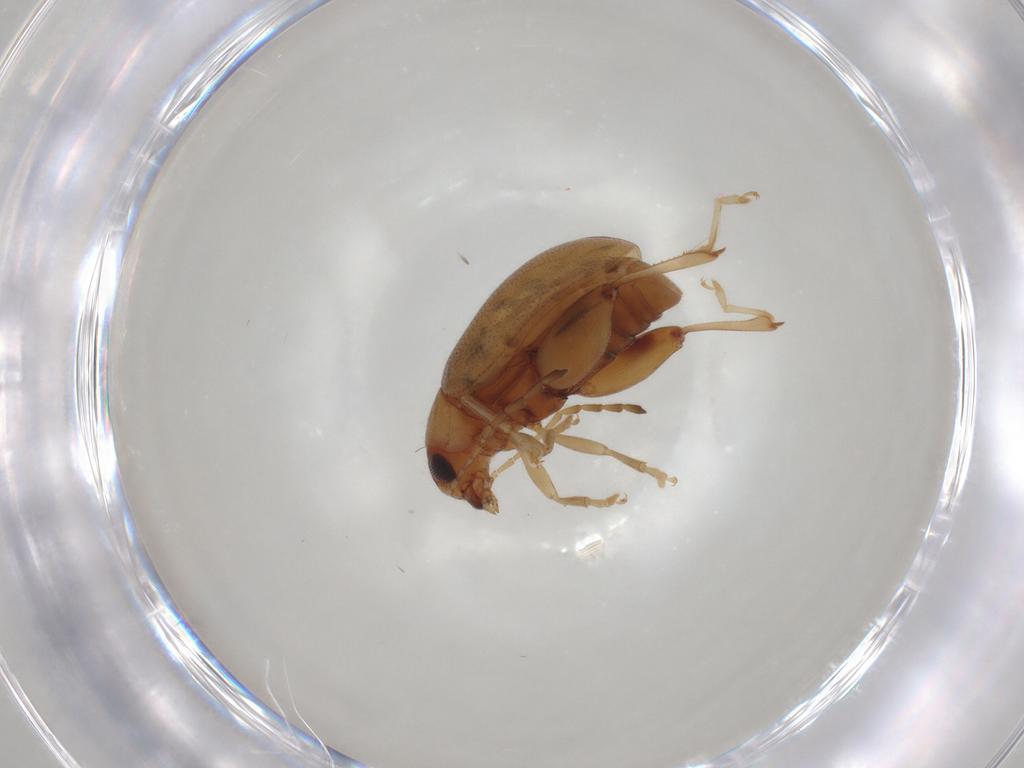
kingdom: Animalia
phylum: Arthropoda
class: Insecta
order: Coleoptera
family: Chrysomelidae
